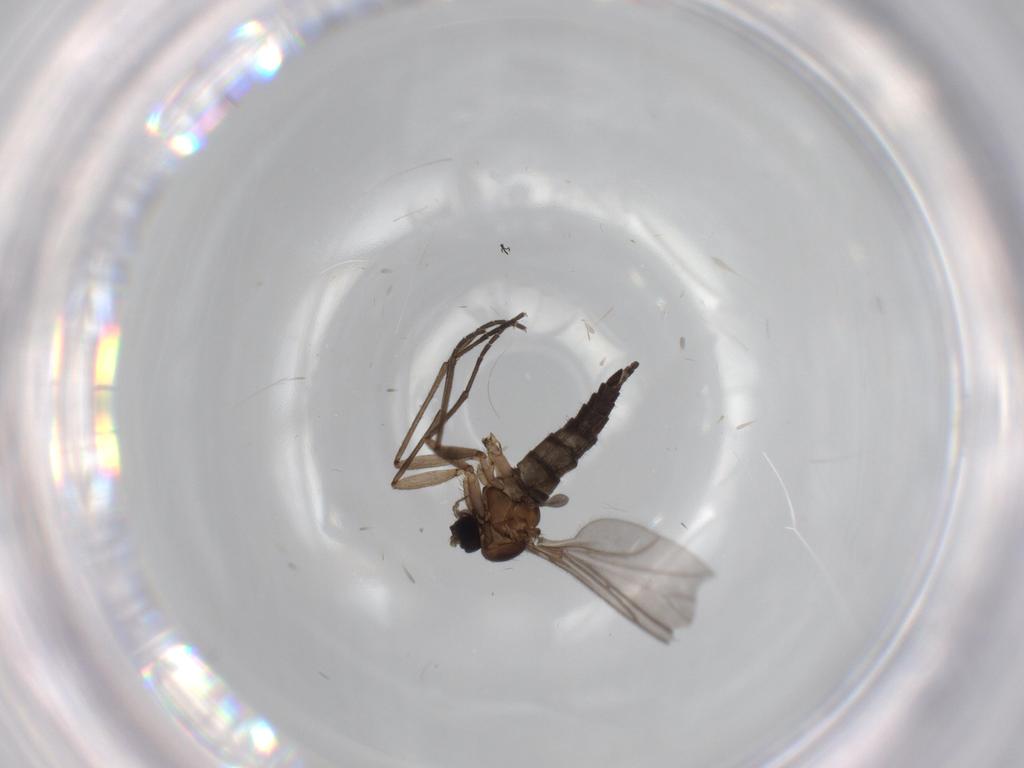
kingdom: Animalia
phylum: Arthropoda
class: Insecta
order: Diptera
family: Sciaridae
